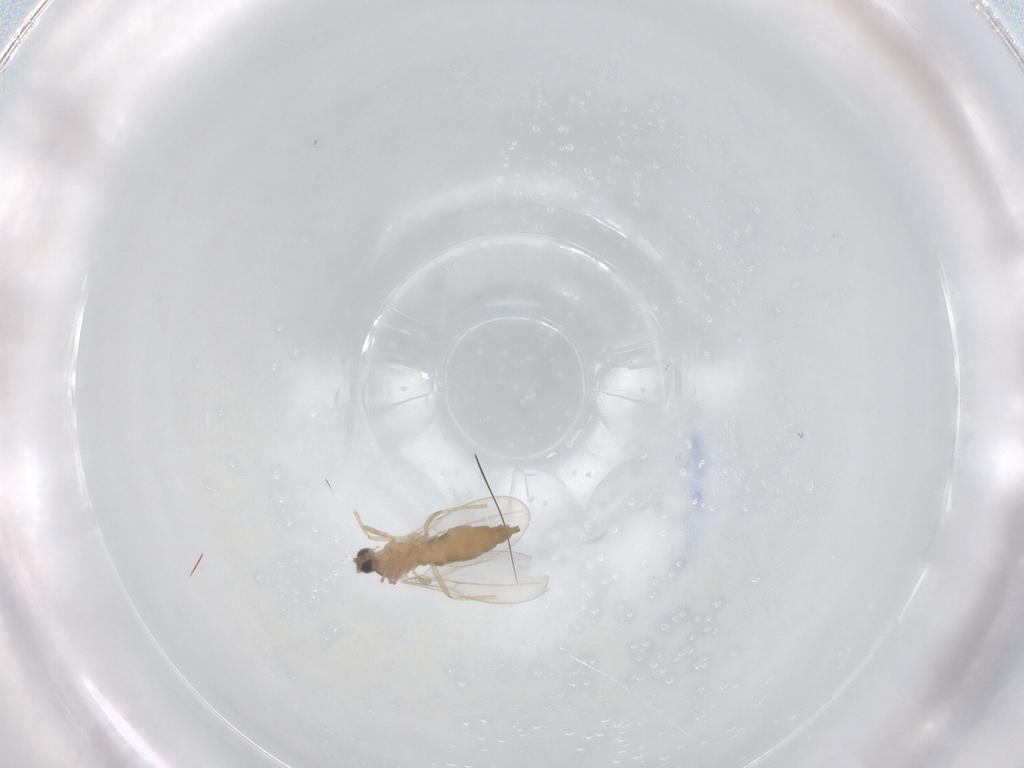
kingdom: Animalia
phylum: Arthropoda
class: Insecta
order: Diptera
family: Cecidomyiidae
